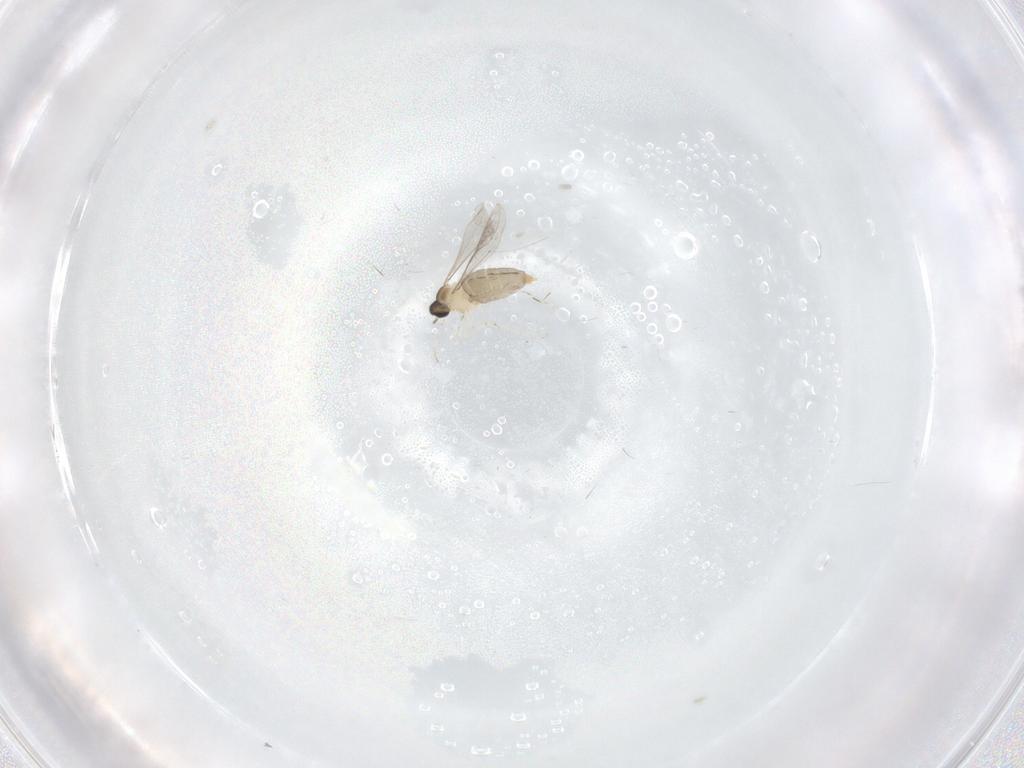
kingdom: Animalia
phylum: Arthropoda
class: Insecta
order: Diptera
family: Cecidomyiidae
